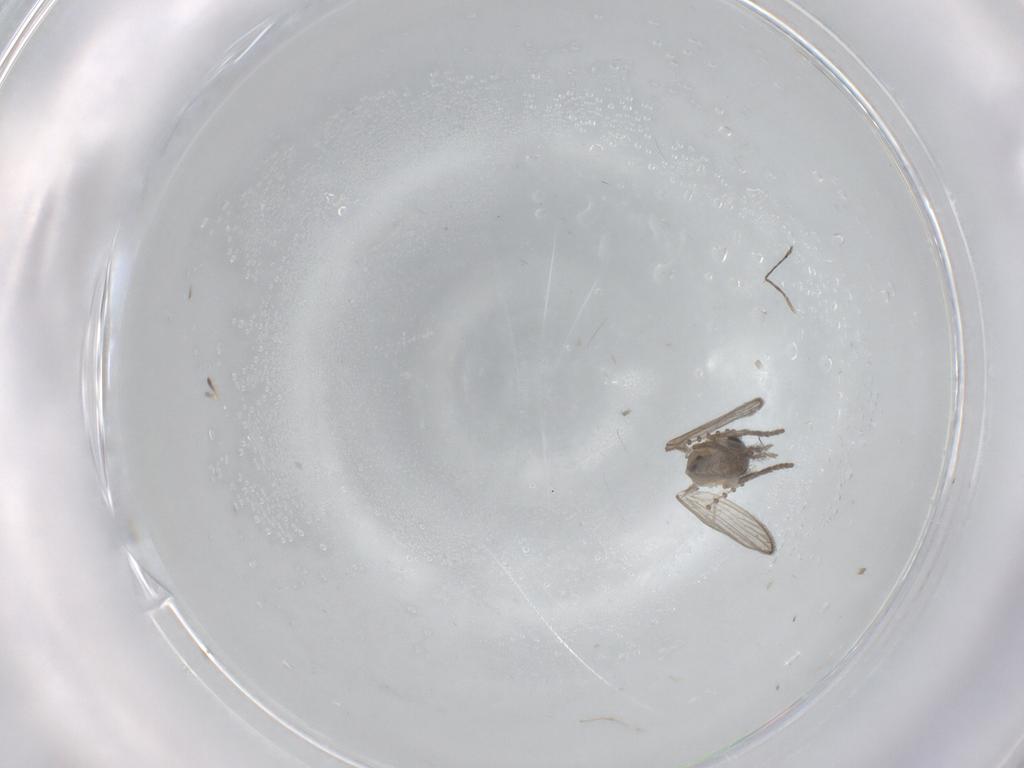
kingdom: Animalia
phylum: Arthropoda
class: Insecta
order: Diptera
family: Psychodidae
